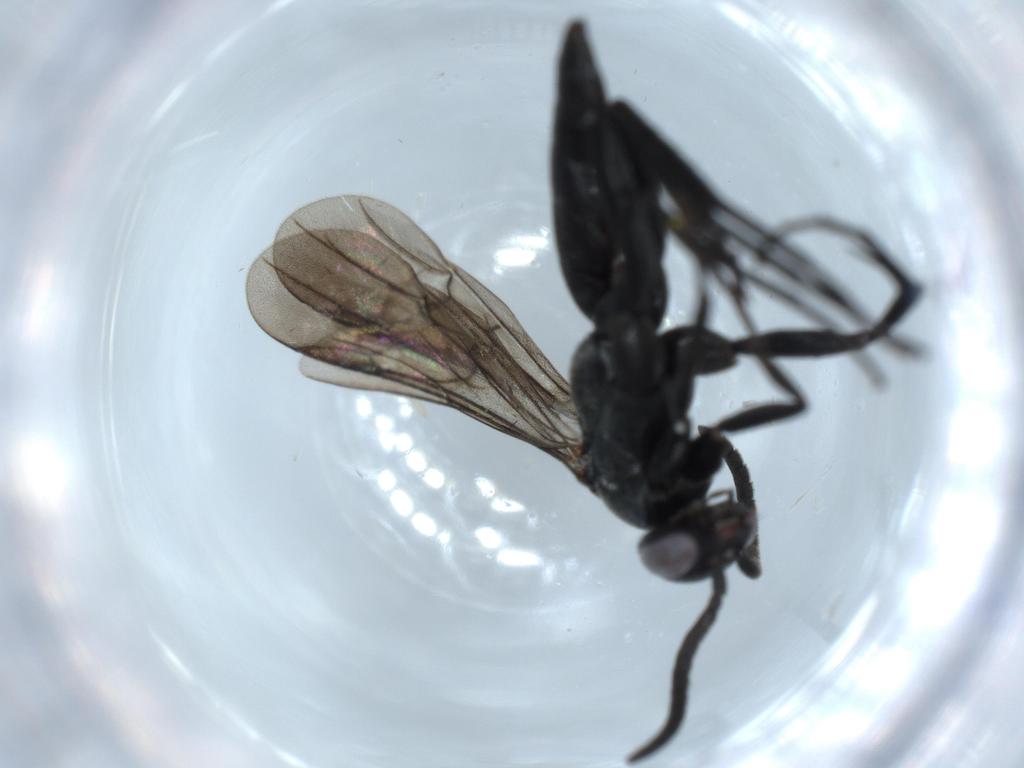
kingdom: Animalia
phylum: Arthropoda
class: Insecta
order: Hymenoptera
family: Pompilidae
